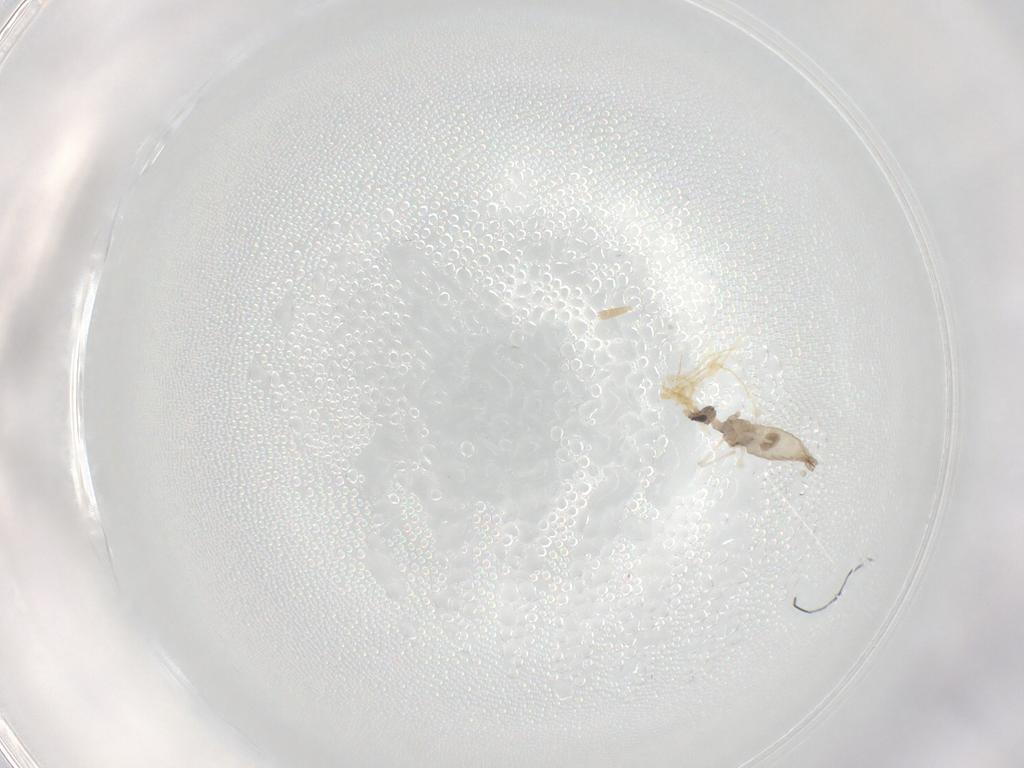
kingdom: Animalia
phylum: Arthropoda
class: Insecta
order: Diptera
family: Cecidomyiidae
